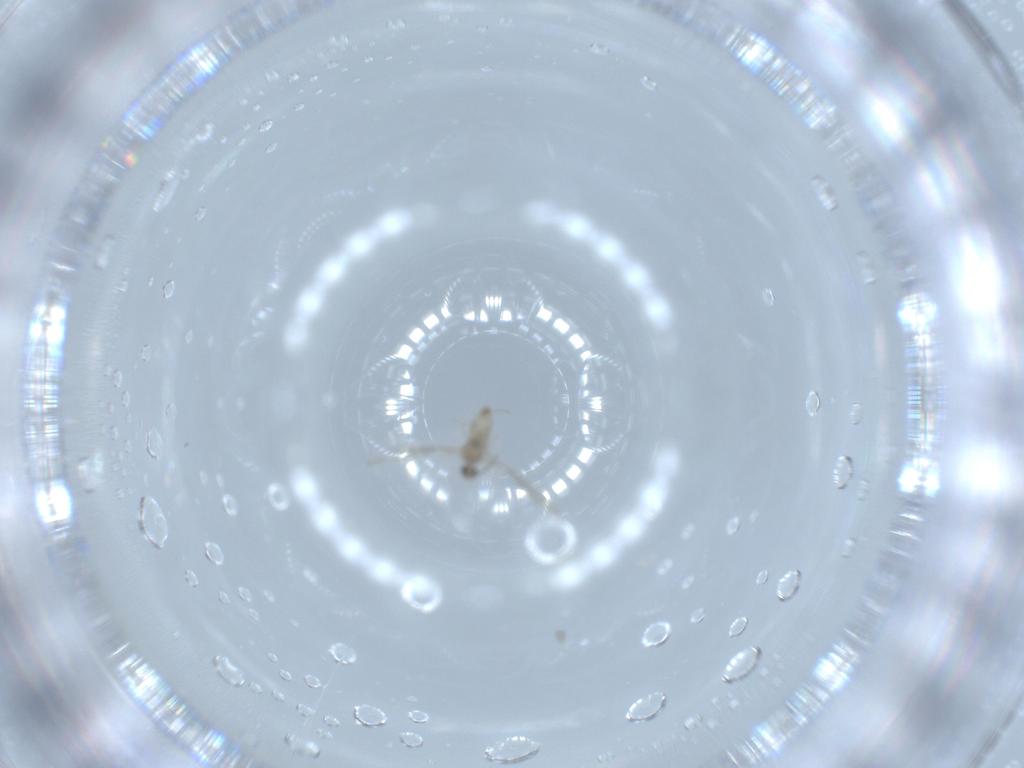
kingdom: Animalia
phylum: Arthropoda
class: Insecta
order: Diptera
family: Cecidomyiidae
